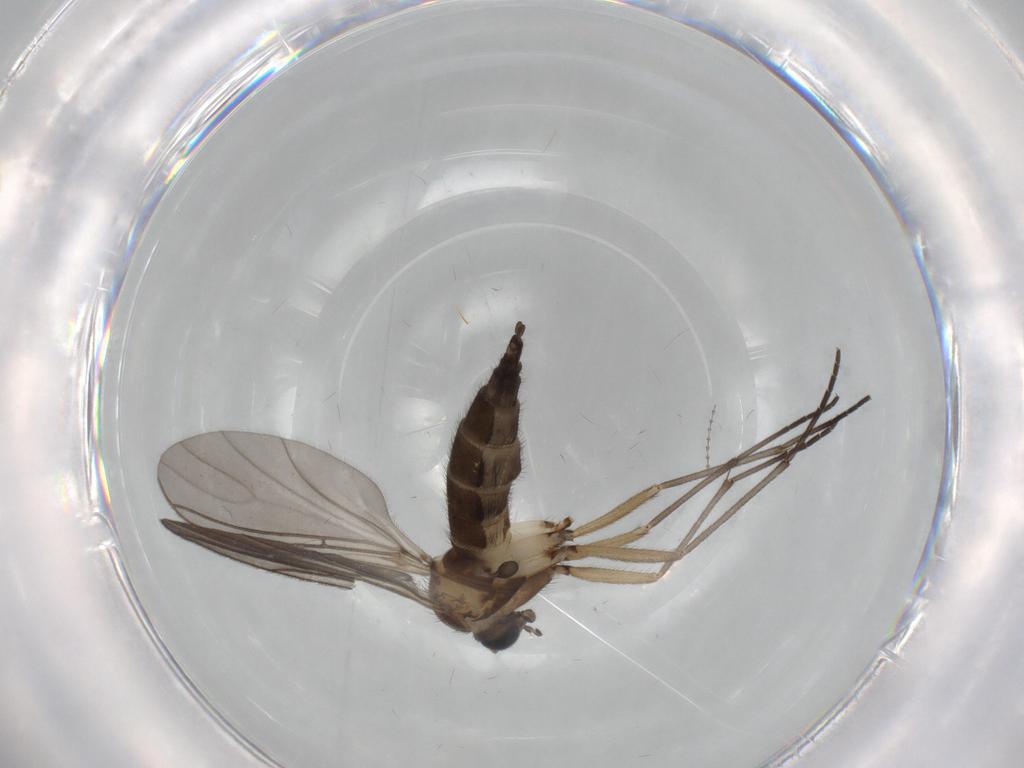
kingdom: Animalia
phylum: Arthropoda
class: Insecta
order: Diptera
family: Sciaridae
